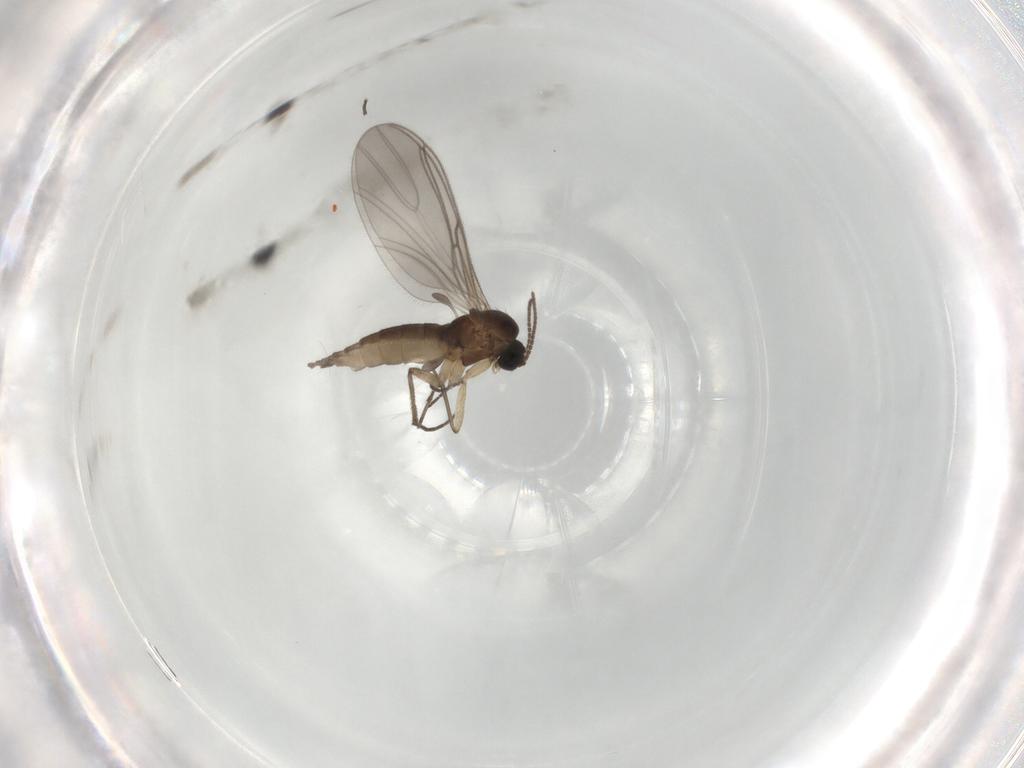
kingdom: Animalia
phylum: Arthropoda
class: Insecta
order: Diptera
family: Sciaridae
